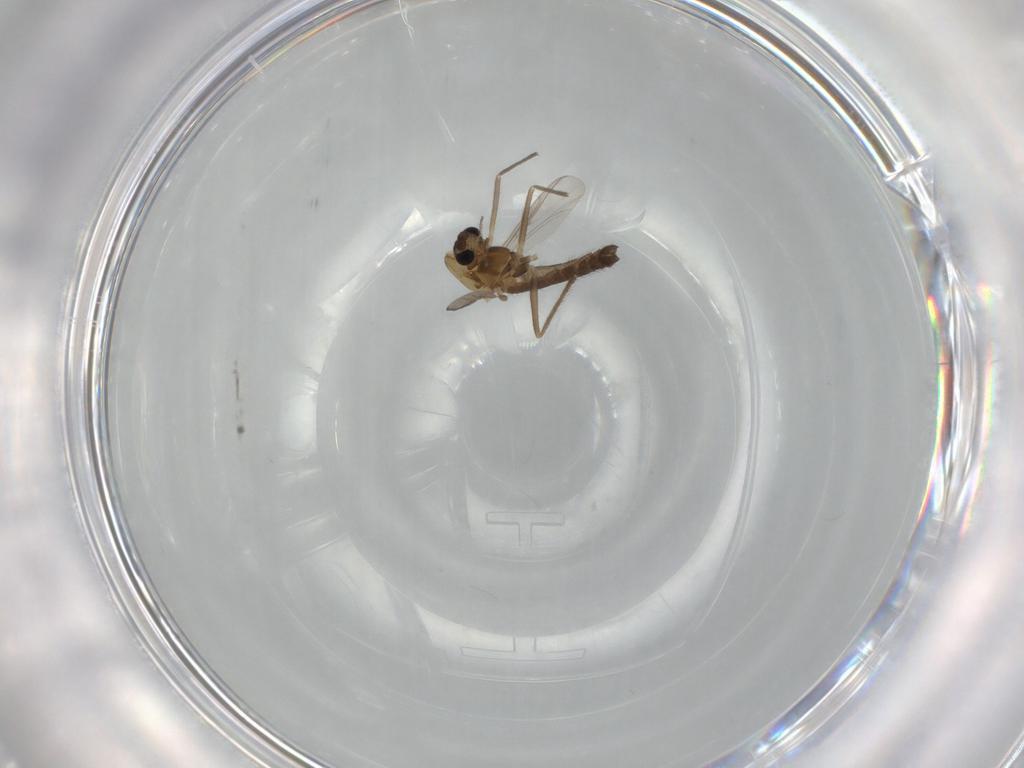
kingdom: Animalia
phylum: Arthropoda
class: Insecta
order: Diptera
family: Chironomidae
